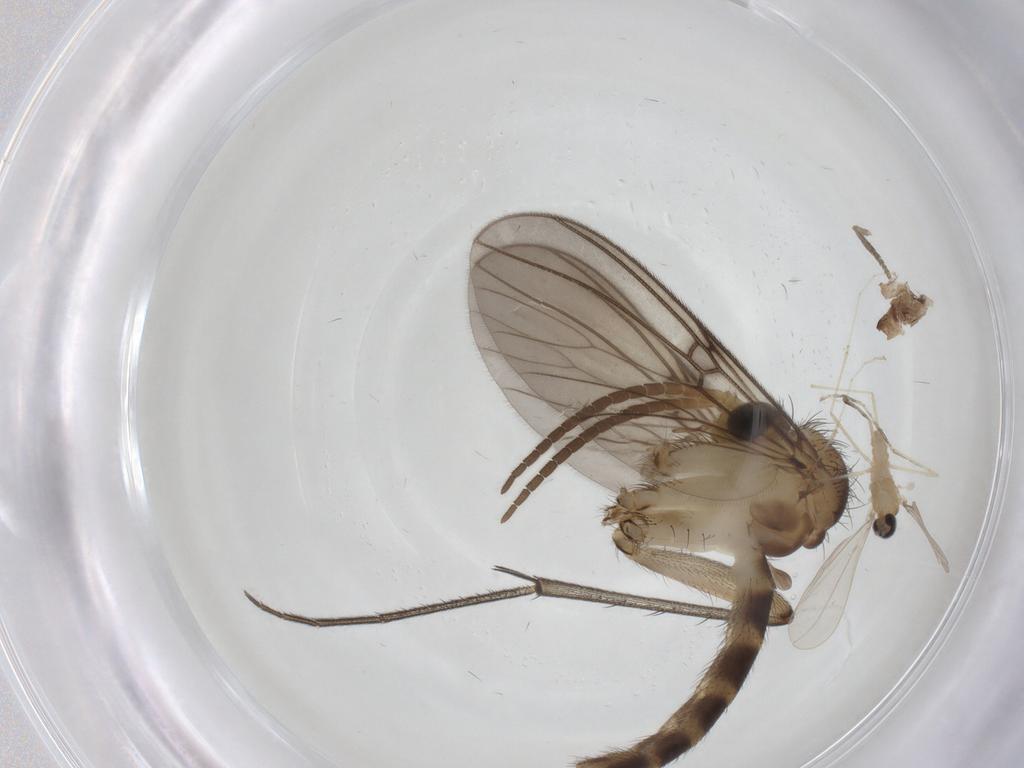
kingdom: Animalia
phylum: Arthropoda
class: Insecta
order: Diptera
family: Mycetophilidae
